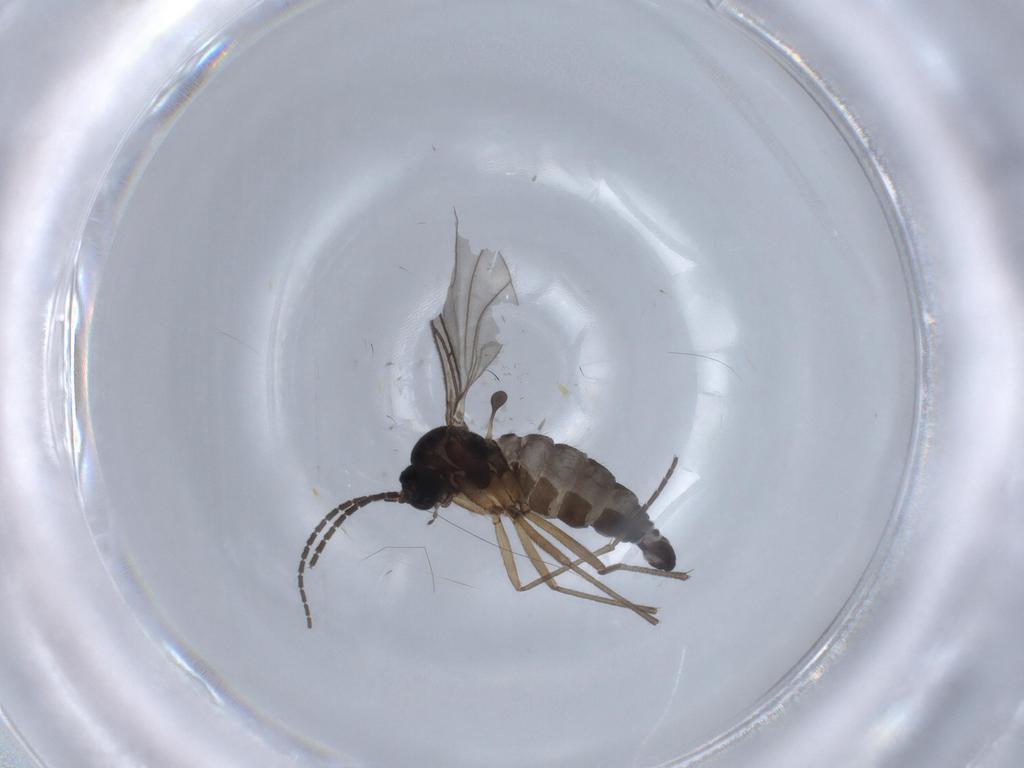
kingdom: Animalia
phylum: Arthropoda
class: Insecta
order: Diptera
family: Sciaridae
